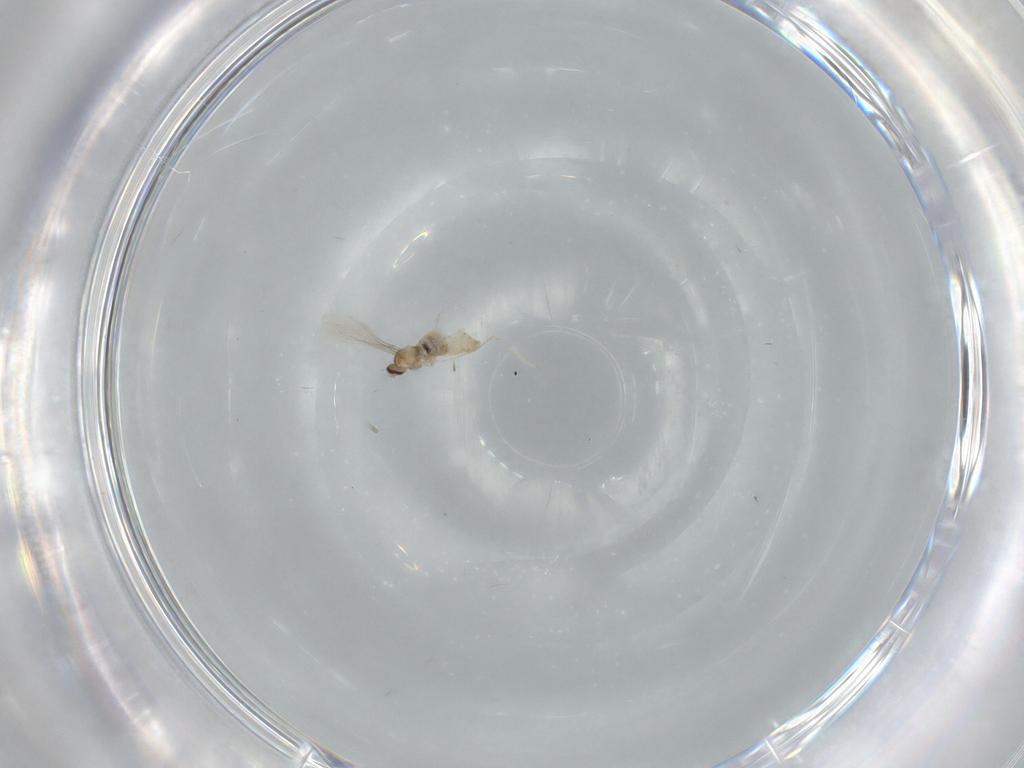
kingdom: Animalia
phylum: Arthropoda
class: Insecta
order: Diptera
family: Cecidomyiidae
